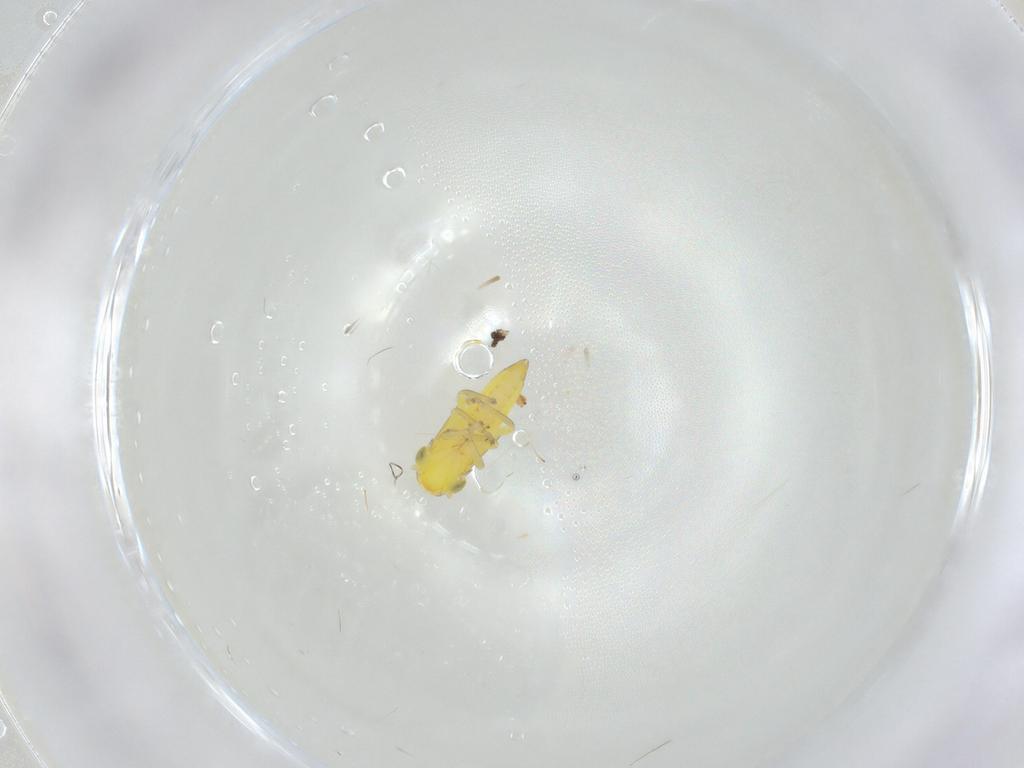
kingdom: Animalia
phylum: Arthropoda
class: Insecta
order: Hemiptera
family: Cicadellidae
